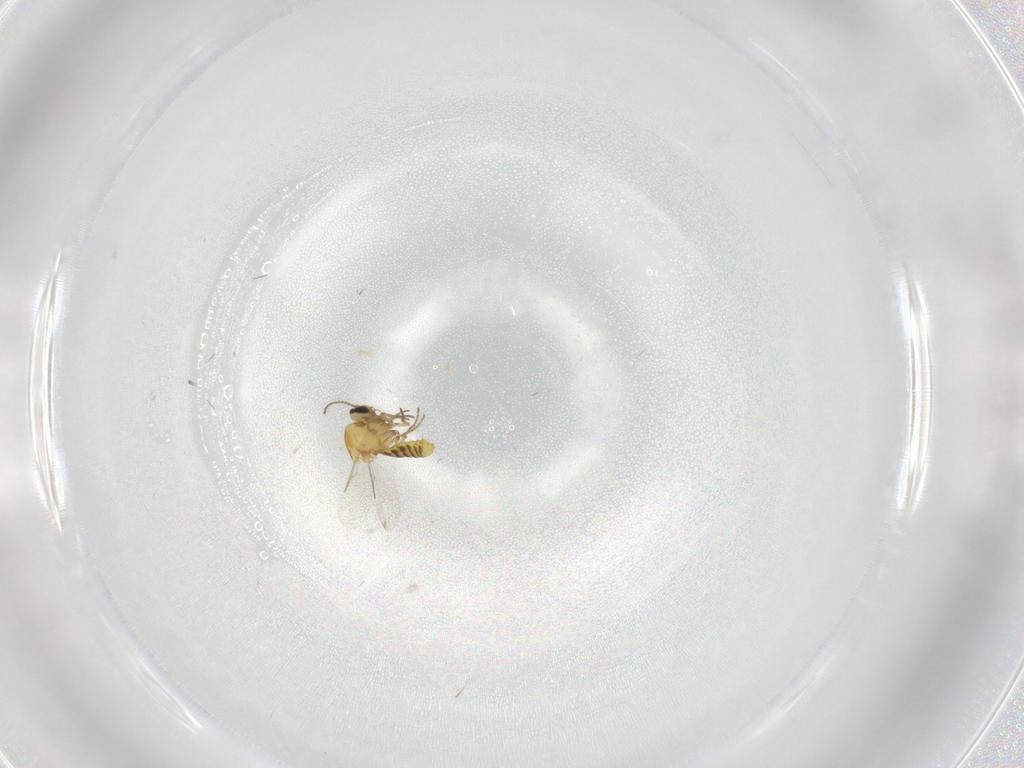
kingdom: Animalia
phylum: Arthropoda
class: Insecta
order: Diptera
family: Ceratopogonidae
